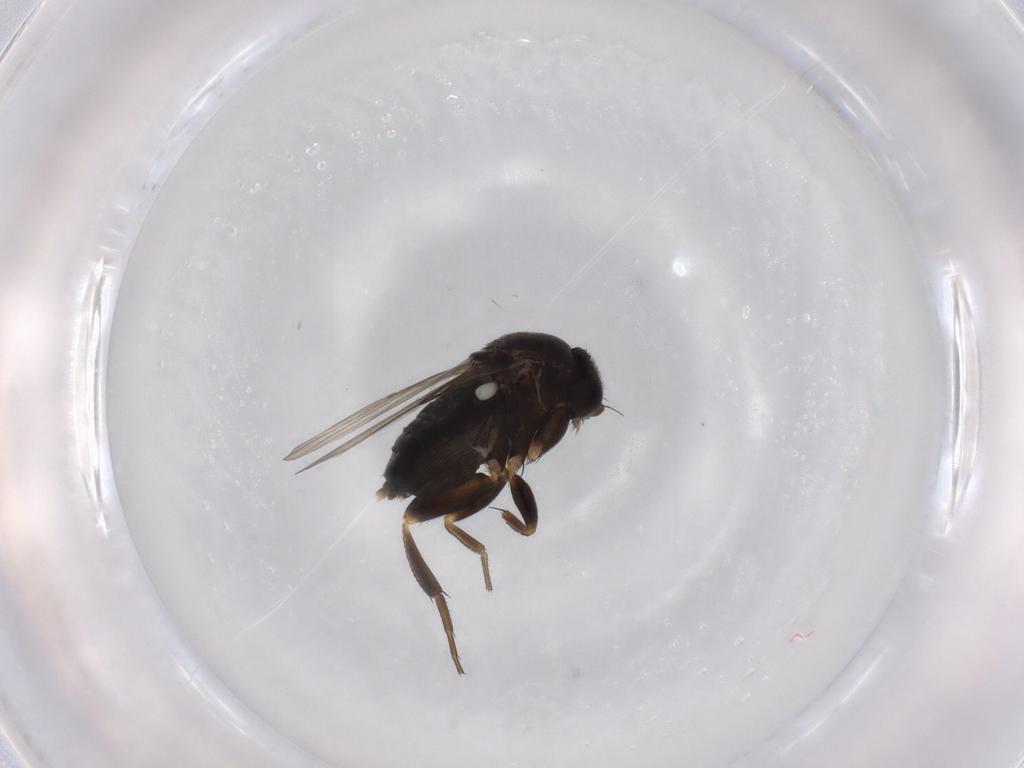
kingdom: Animalia
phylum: Arthropoda
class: Insecta
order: Diptera
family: Phoridae
